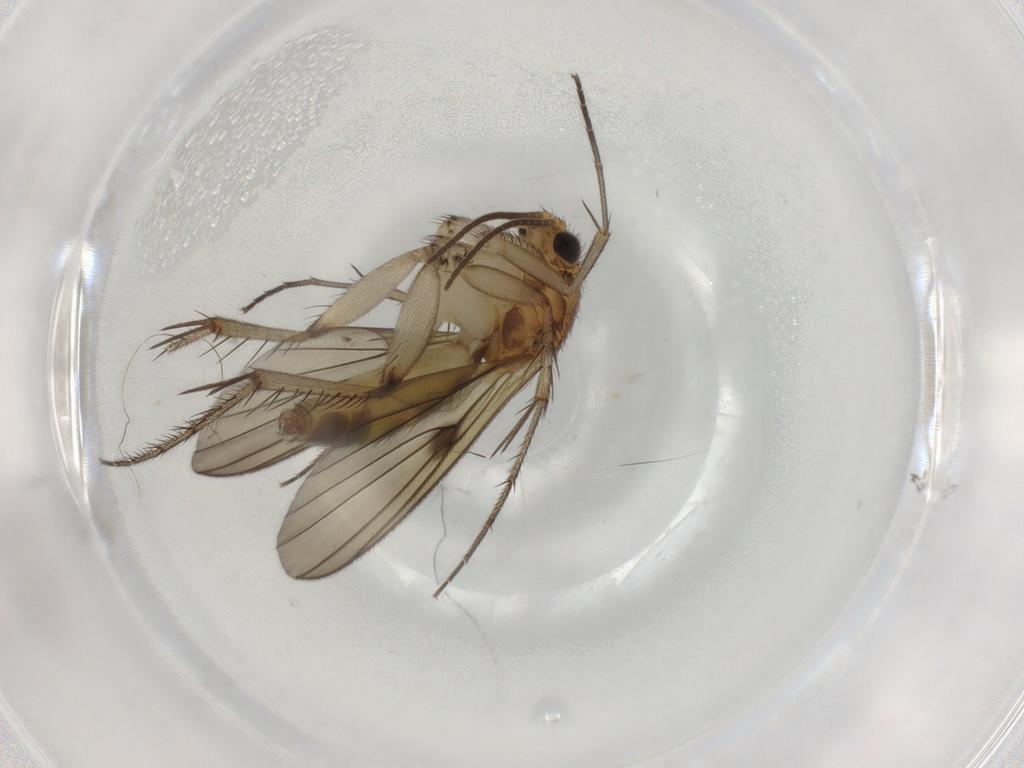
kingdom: Animalia
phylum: Arthropoda
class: Insecta
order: Diptera
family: Mycetophilidae
